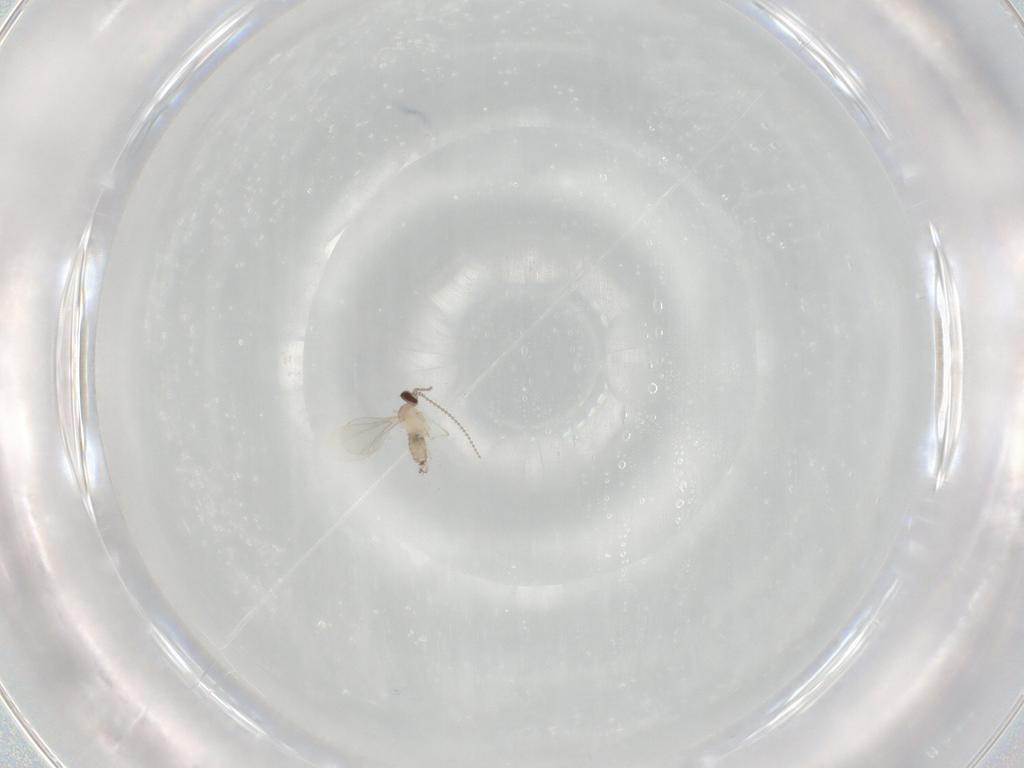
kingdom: Animalia
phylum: Arthropoda
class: Insecta
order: Diptera
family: Cecidomyiidae
